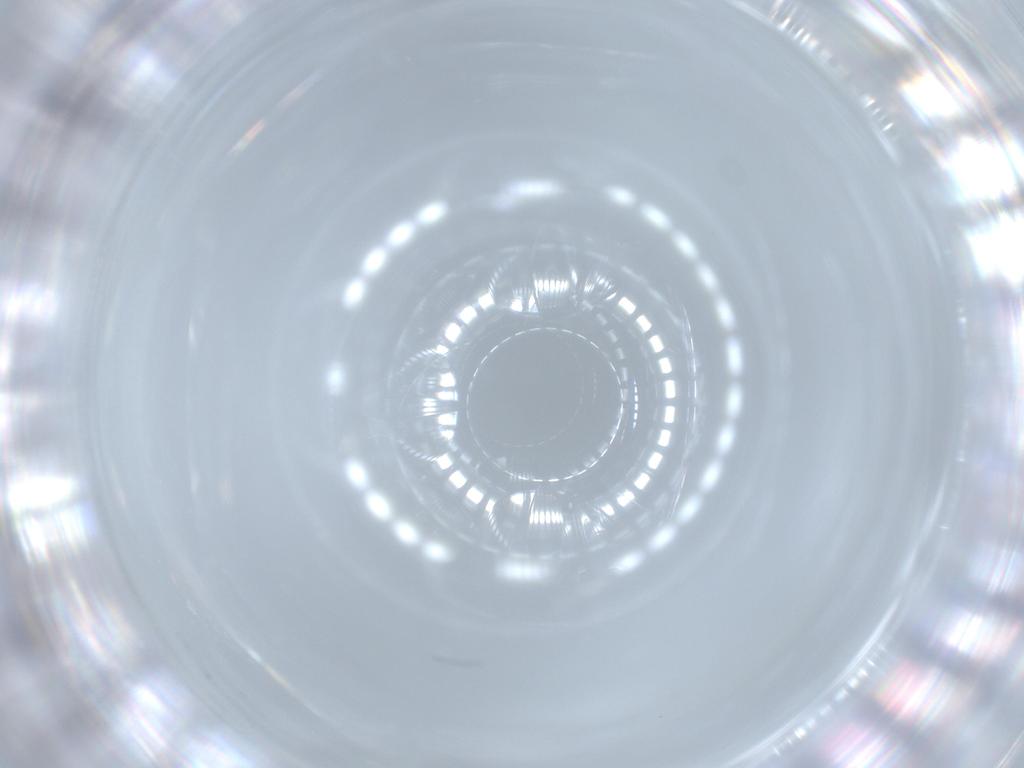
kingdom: Animalia
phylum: Arthropoda
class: Insecta
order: Diptera
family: Cecidomyiidae
